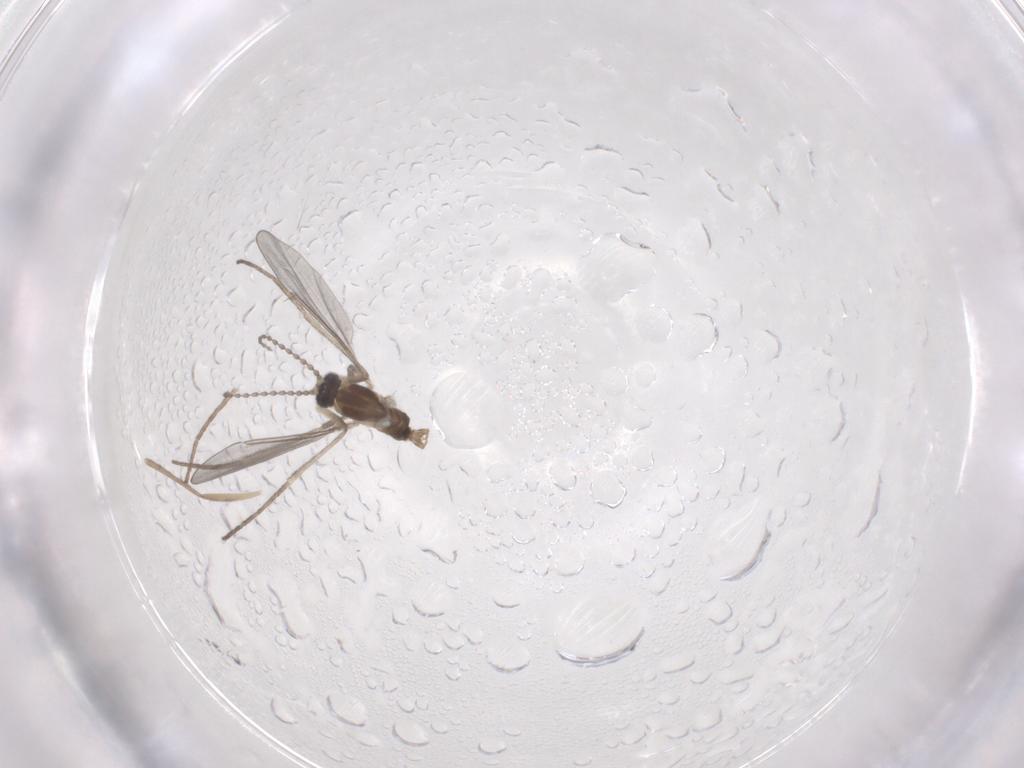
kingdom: Animalia
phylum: Arthropoda
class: Insecta
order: Diptera
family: Cecidomyiidae
